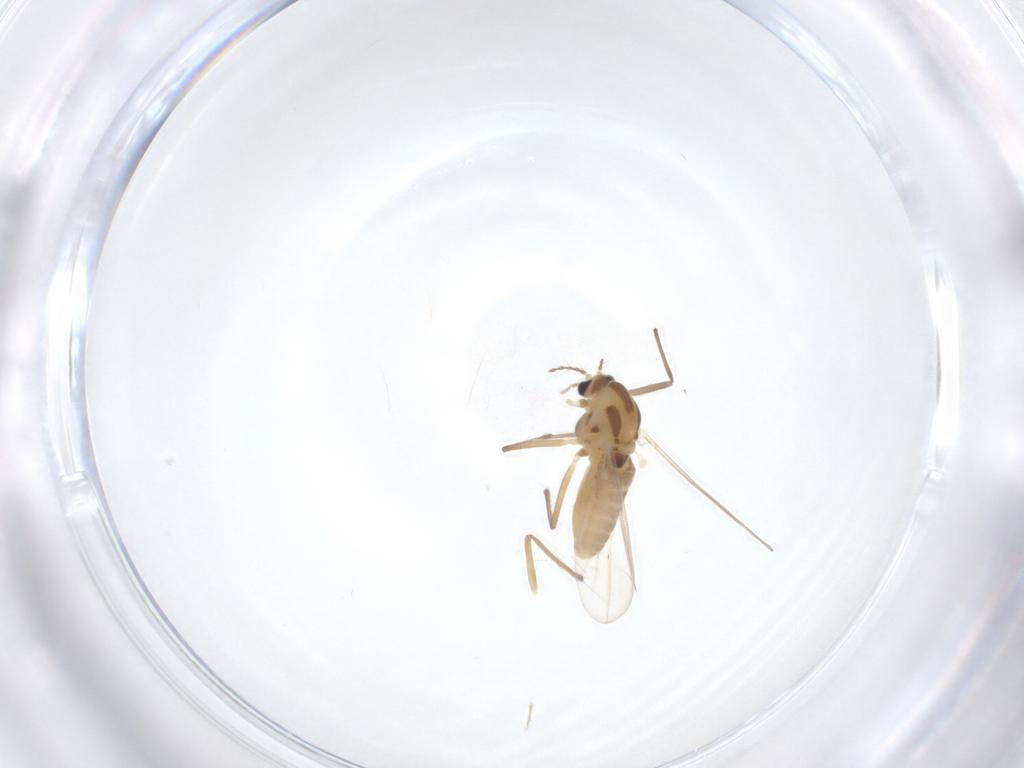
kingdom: Animalia
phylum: Arthropoda
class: Insecta
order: Diptera
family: Chironomidae
